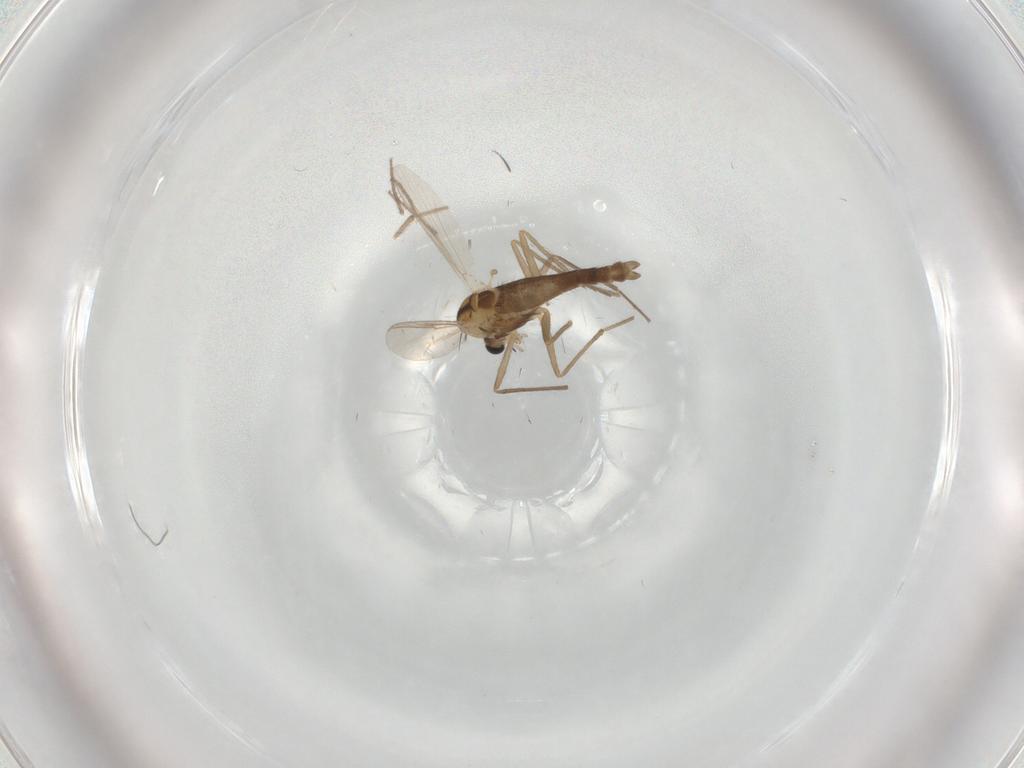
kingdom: Animalia
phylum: Arthropoda
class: Insecta
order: Diptera
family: Chironomidae
